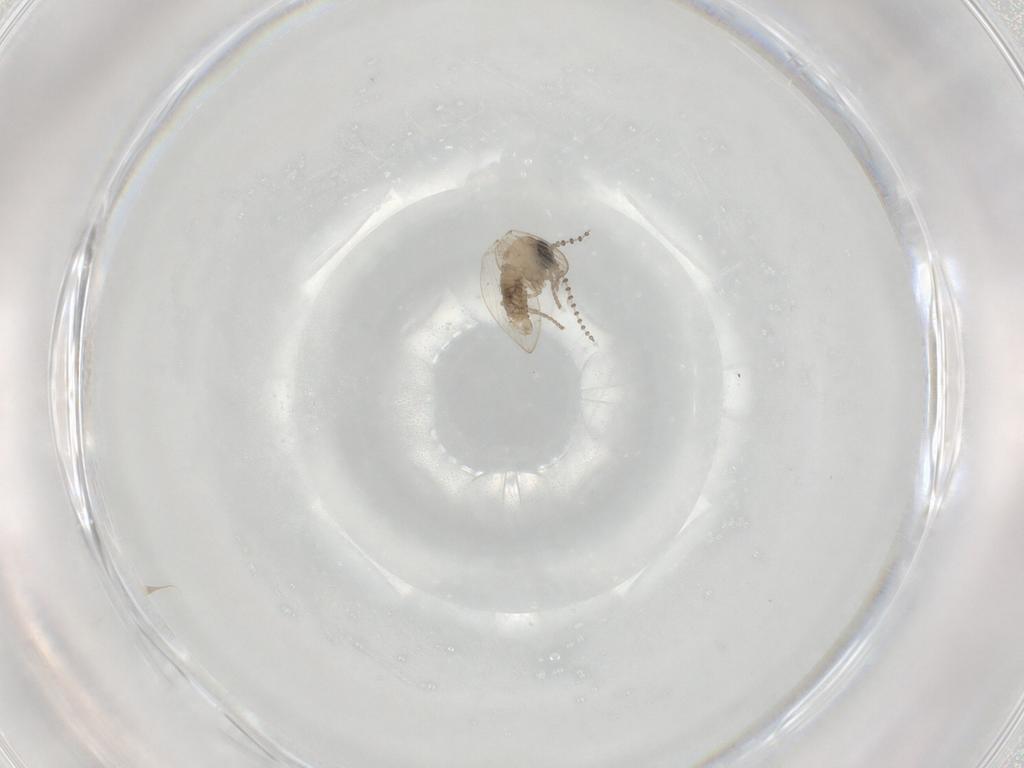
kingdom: Animalia
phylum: Arthropoda
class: Insecta
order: Diptera
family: Psychodidae
